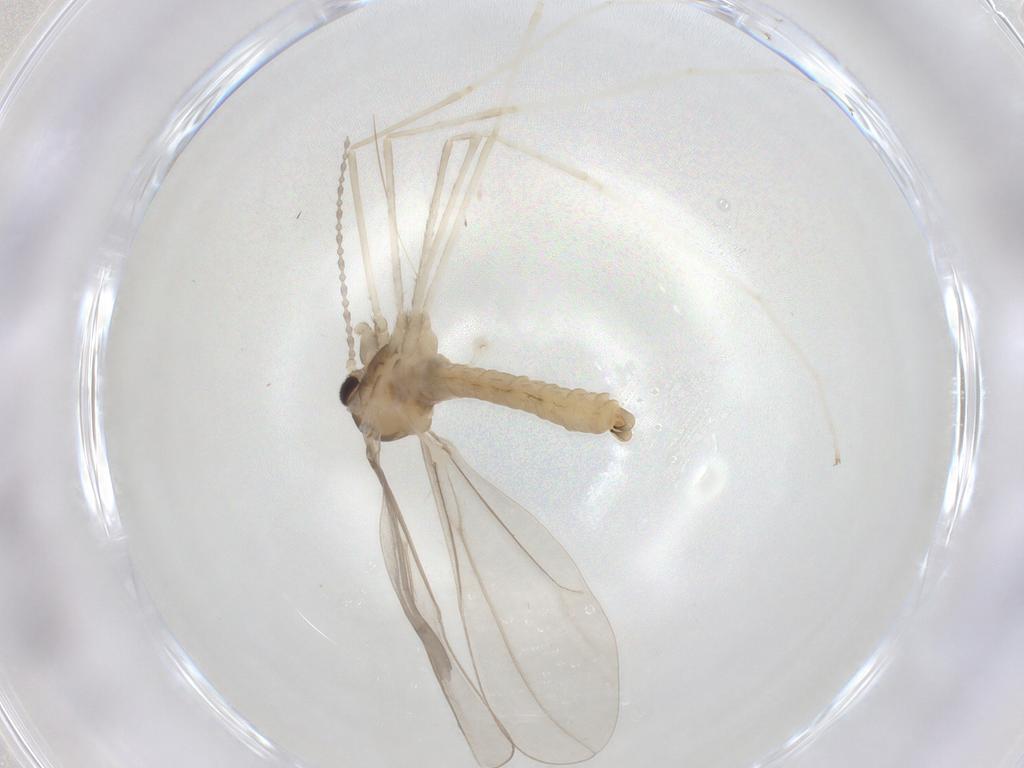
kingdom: Animalia
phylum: Arthropoda
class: Insecta
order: Diptera
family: Cecidomyiidae
